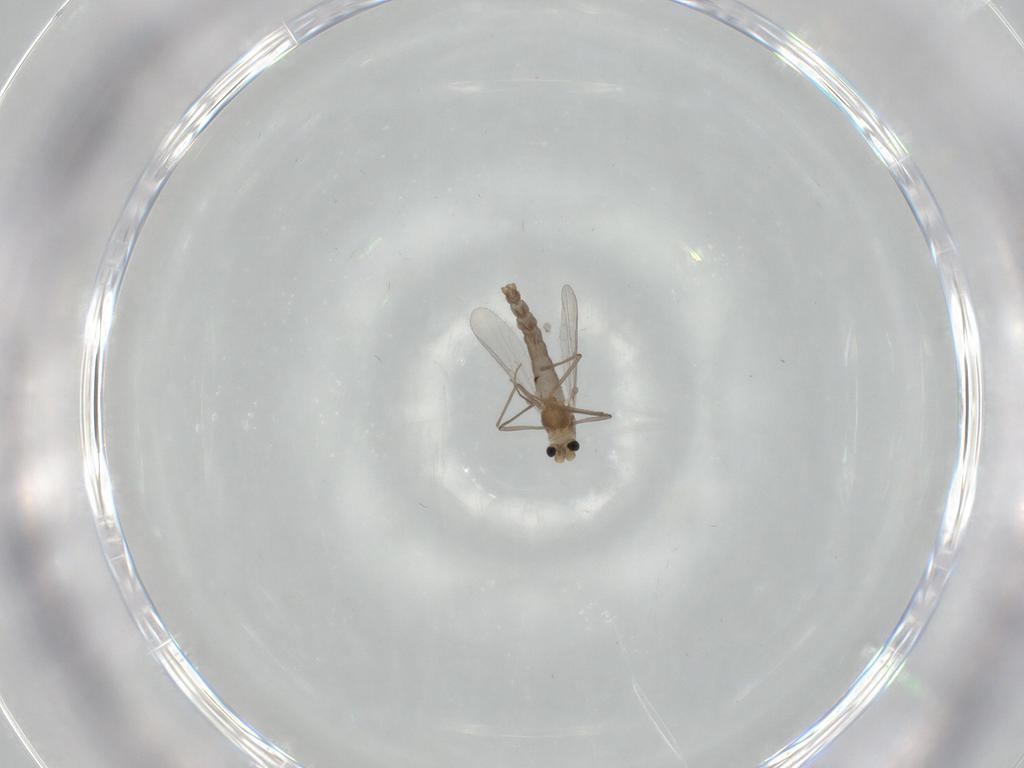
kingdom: Animalia
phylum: Arthropoda
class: Insecta
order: Diptera
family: Chironomidae
